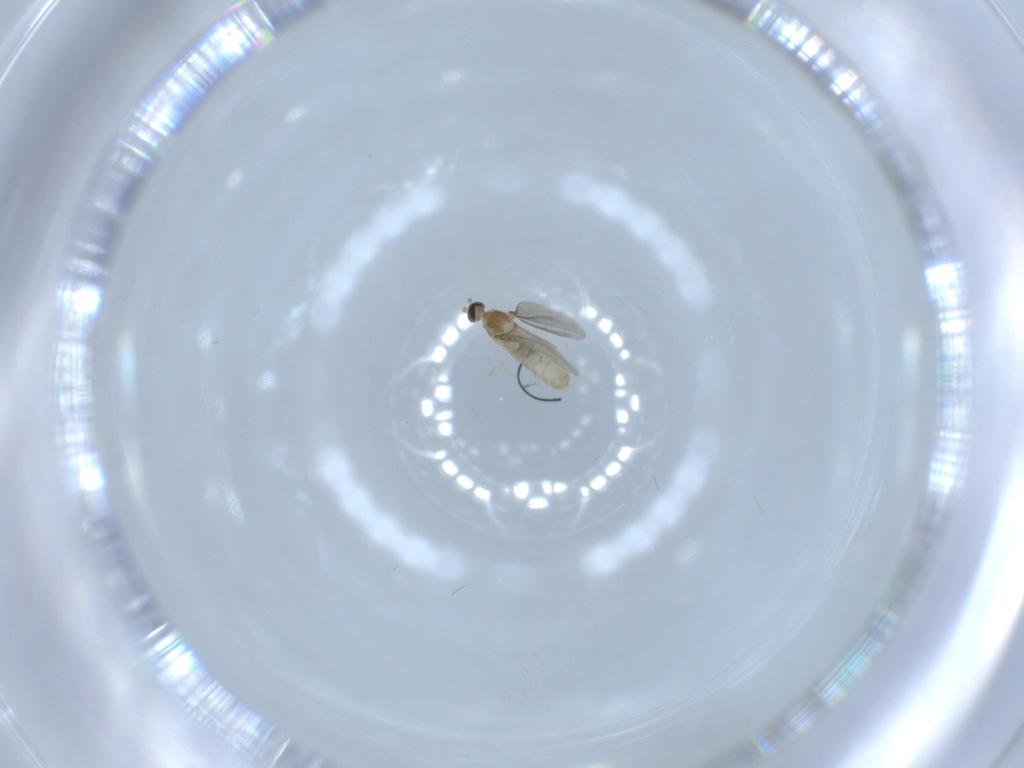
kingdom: Animalia
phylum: Arthropoda
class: Insecta
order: Diptera
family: Cecidomyiidae
